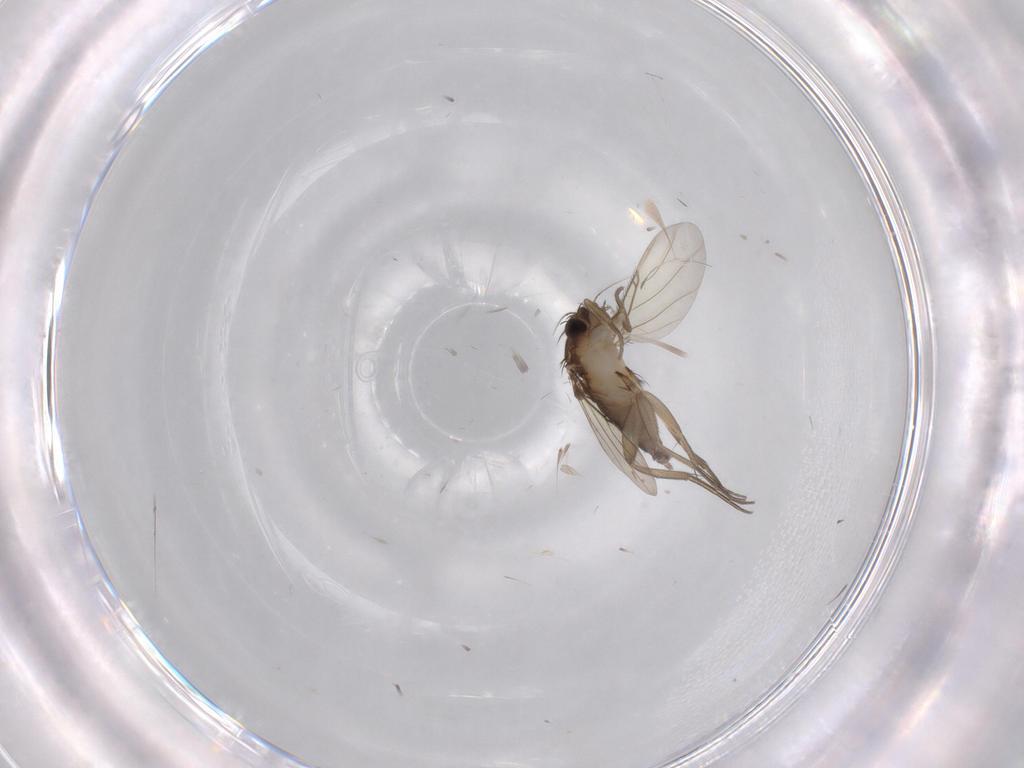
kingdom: Animalia
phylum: Arthropoda
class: Insecta
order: Diptera
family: Phoridae
